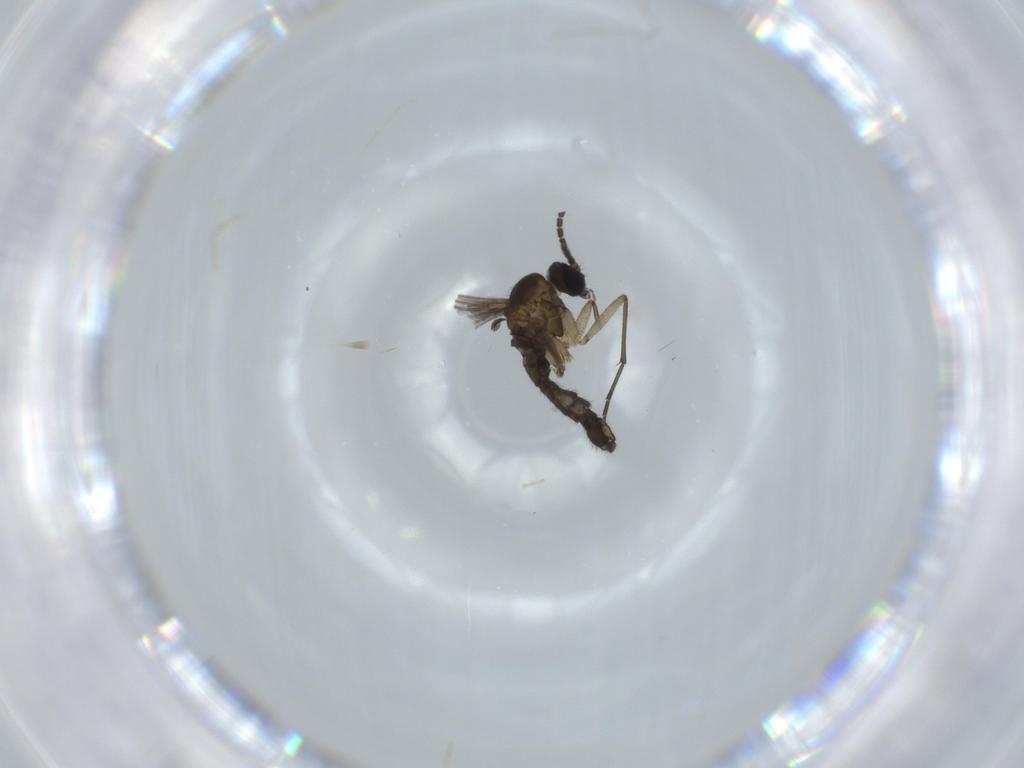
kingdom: Animalia
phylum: Arthropoda
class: Insecta
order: Diptera
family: Sciaridae
